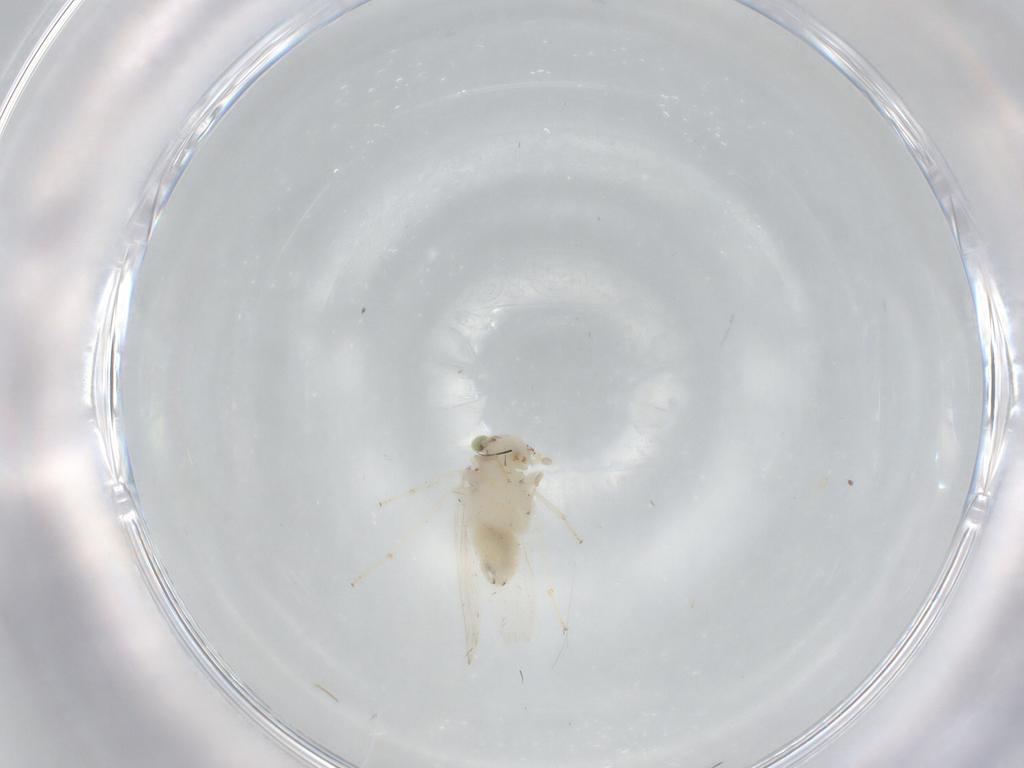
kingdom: Animalia
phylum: Arthropoda
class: Insecta
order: Psocodea
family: Lepidopsocidae
